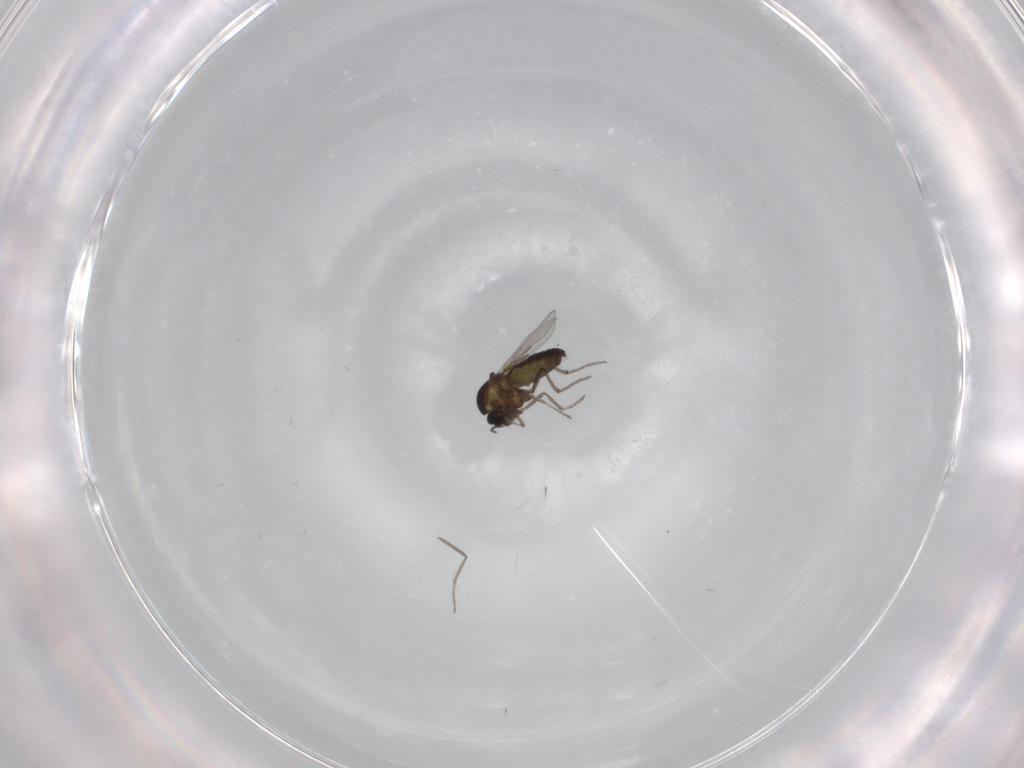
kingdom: Animalia
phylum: Arthropoda
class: Insecta
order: Diptera
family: Ceratopogonidae
